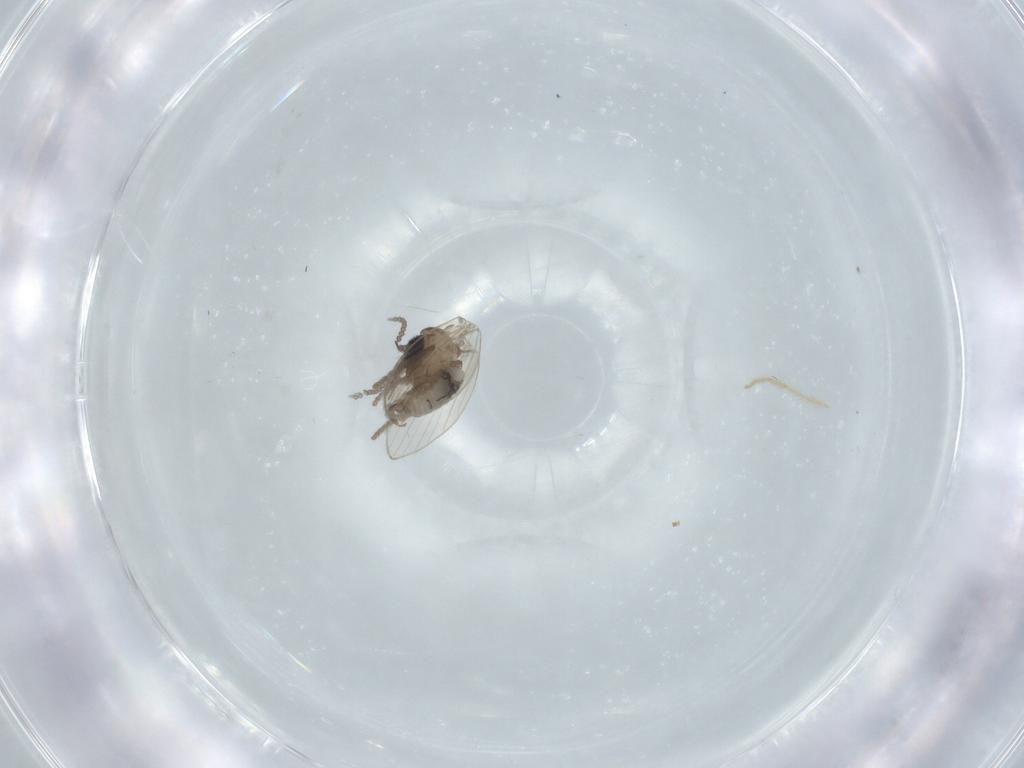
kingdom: Animalia
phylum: Arthropoda
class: Insecta
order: Diptera
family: Psychodidae
